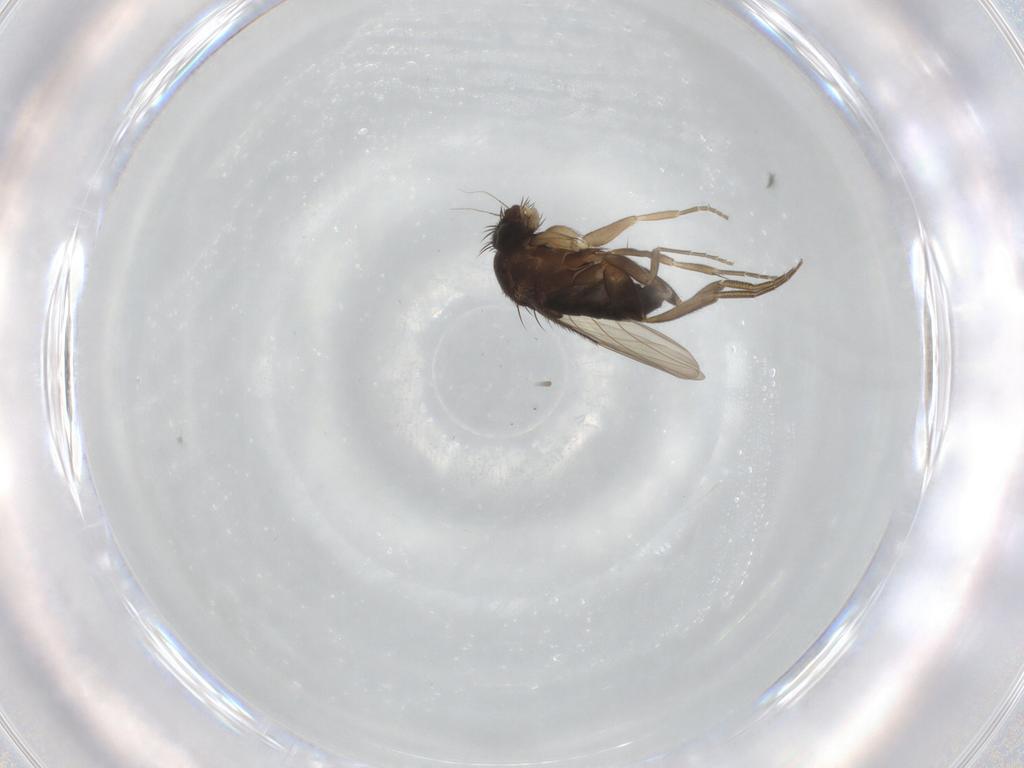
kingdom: Animalia
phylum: Arthropoda
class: Insecta
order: Diptera
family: Phoridae
